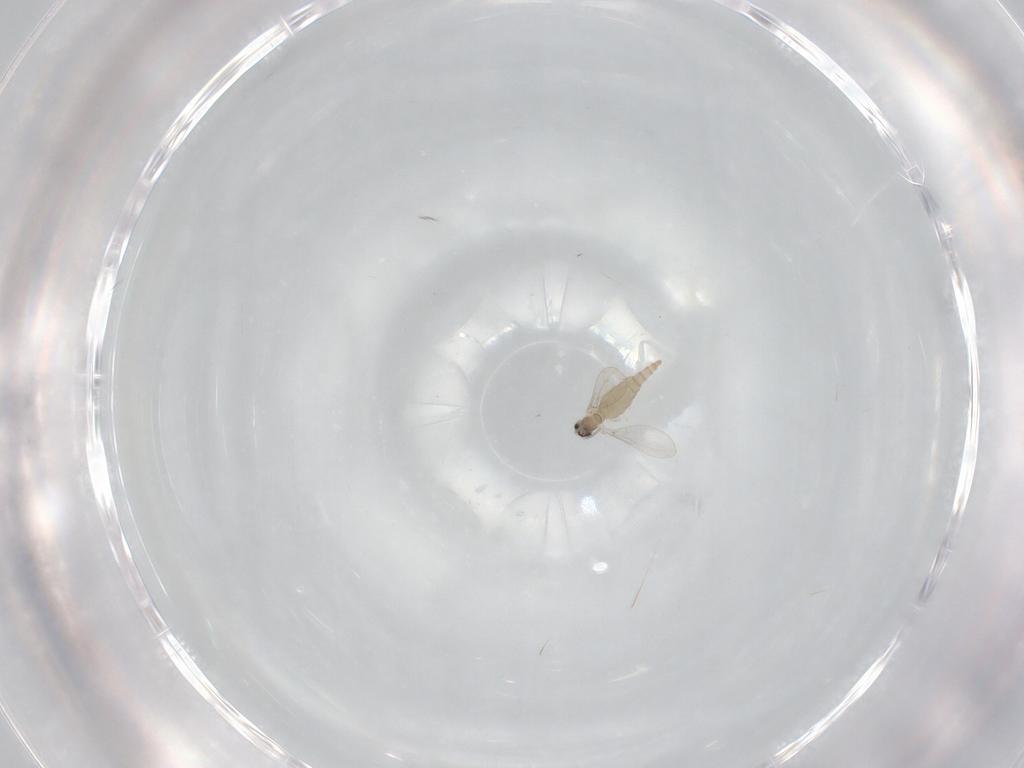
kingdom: Animalia
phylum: Arthropoda
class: Insecta
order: Diptera
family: Cecidomyiidae
